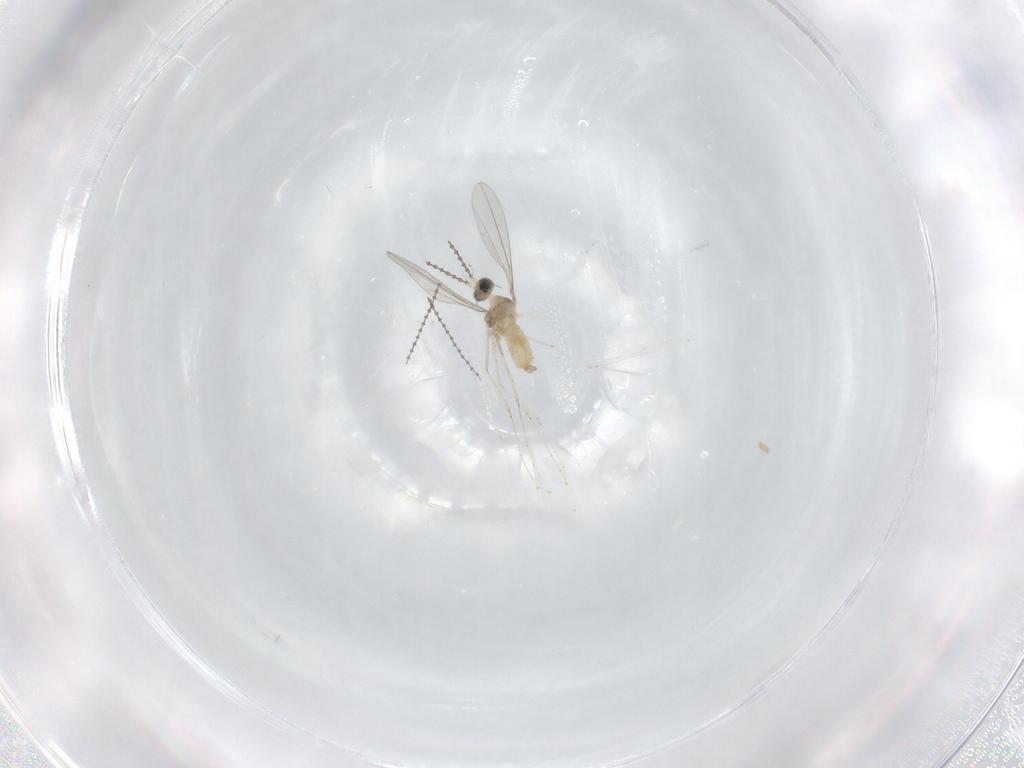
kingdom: Animalia
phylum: Arthropoda
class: Insecta
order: Diptera
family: Cecidomyiidae
